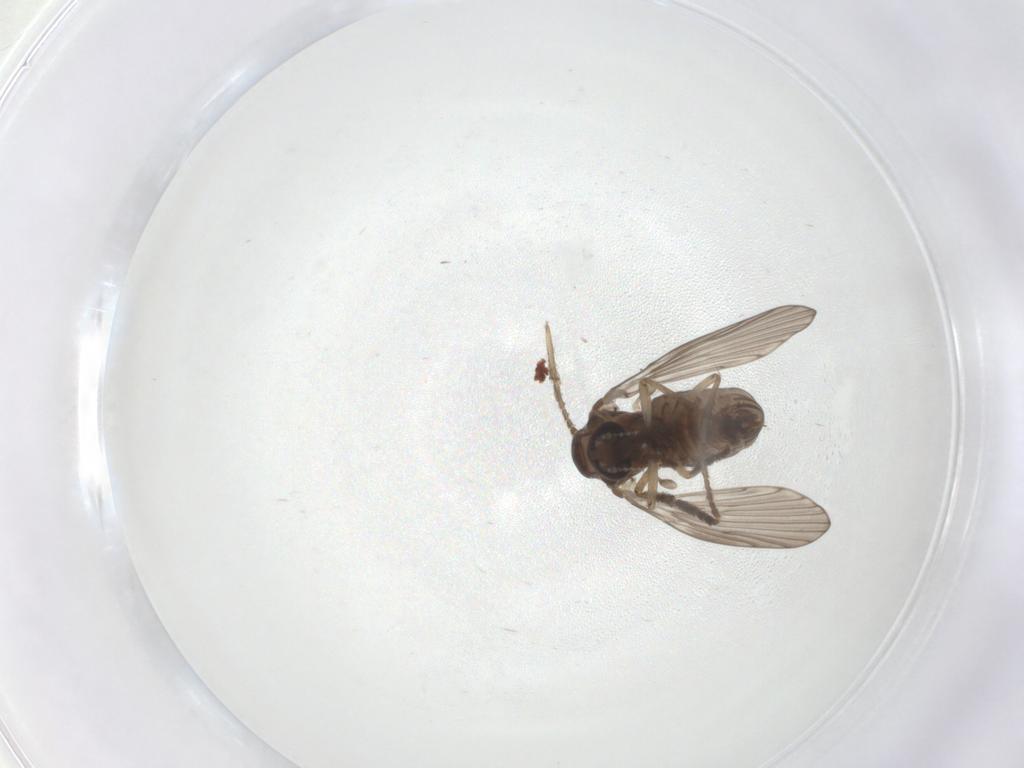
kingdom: Animalia
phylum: Arthropoda
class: Insecta
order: Diptera
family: Psychodidae
